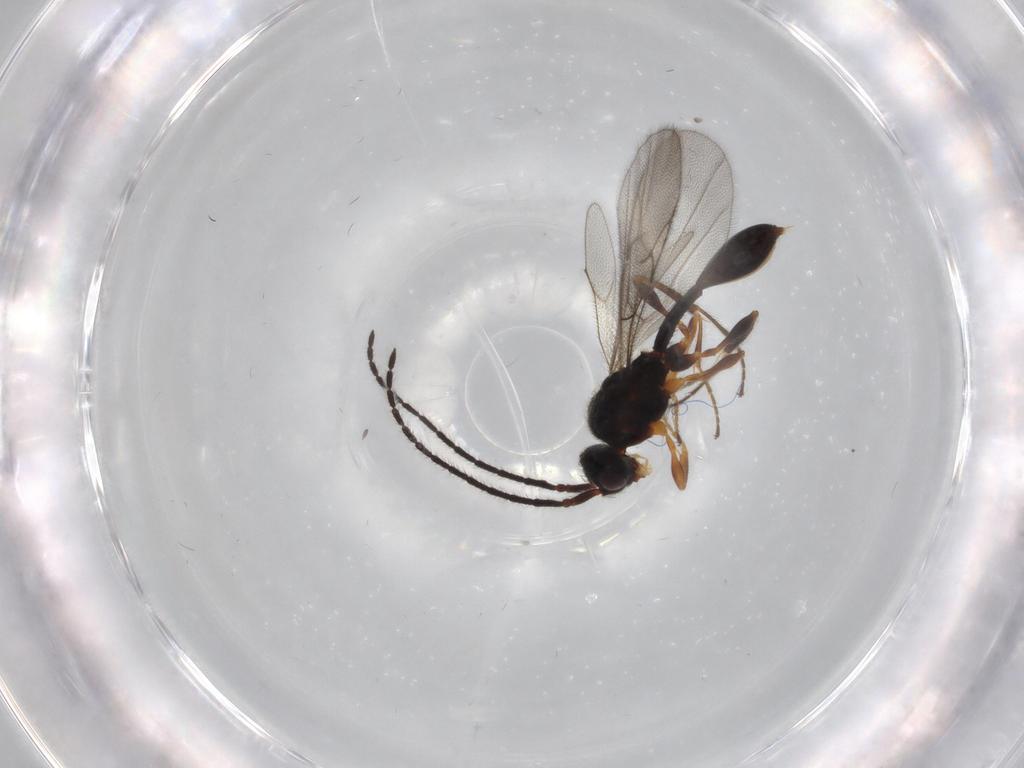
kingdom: Animalia
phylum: Arthropoda
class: Insecta
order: Hymenoptera
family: Diapriidae
